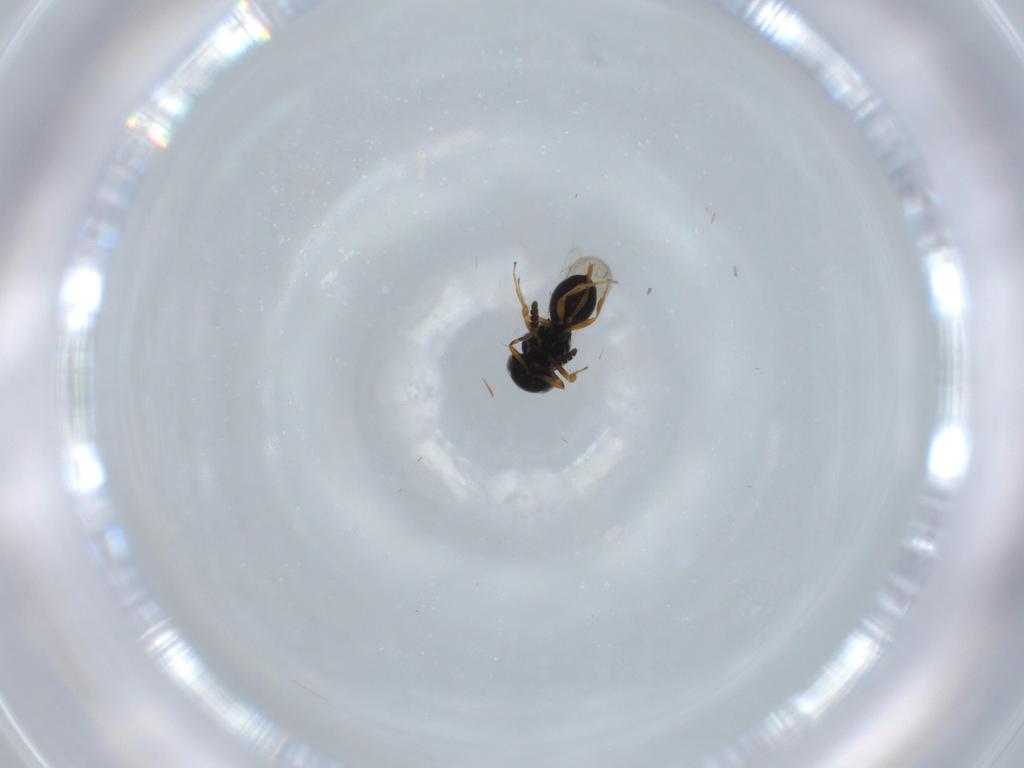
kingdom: Animalia
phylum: Arthropoda
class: Insecta
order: Hymenoptera
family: Scelionidae
